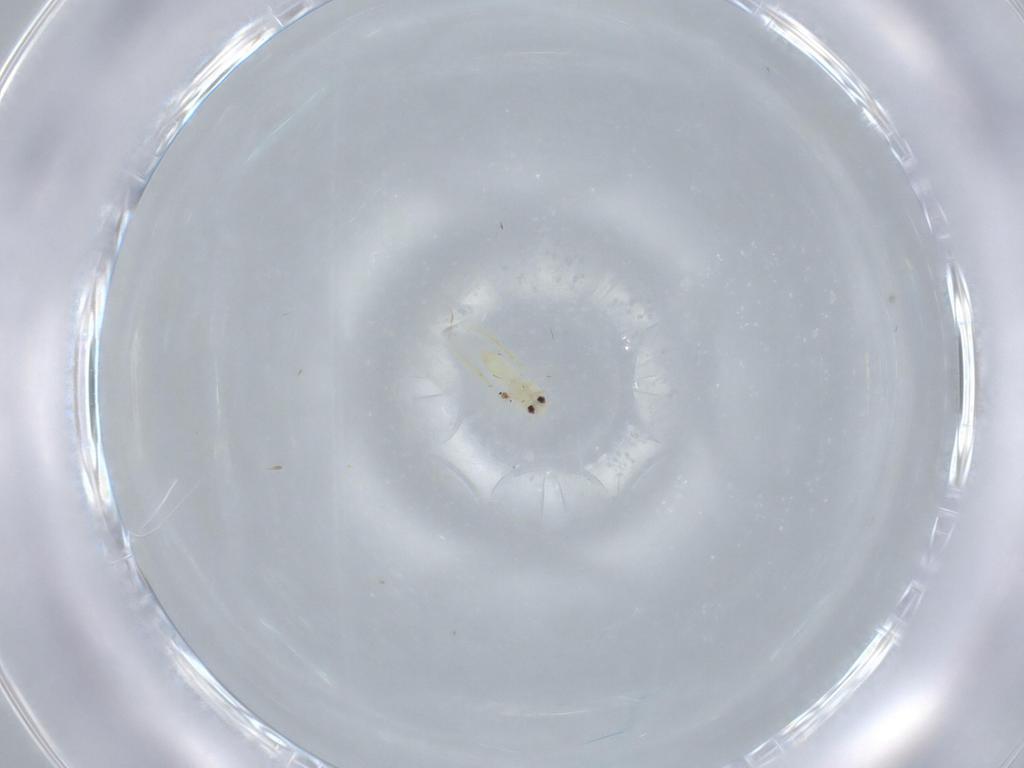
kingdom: Animalia
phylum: Arthropoda
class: Insecta
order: Hemiptera
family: Aleyrodidae
